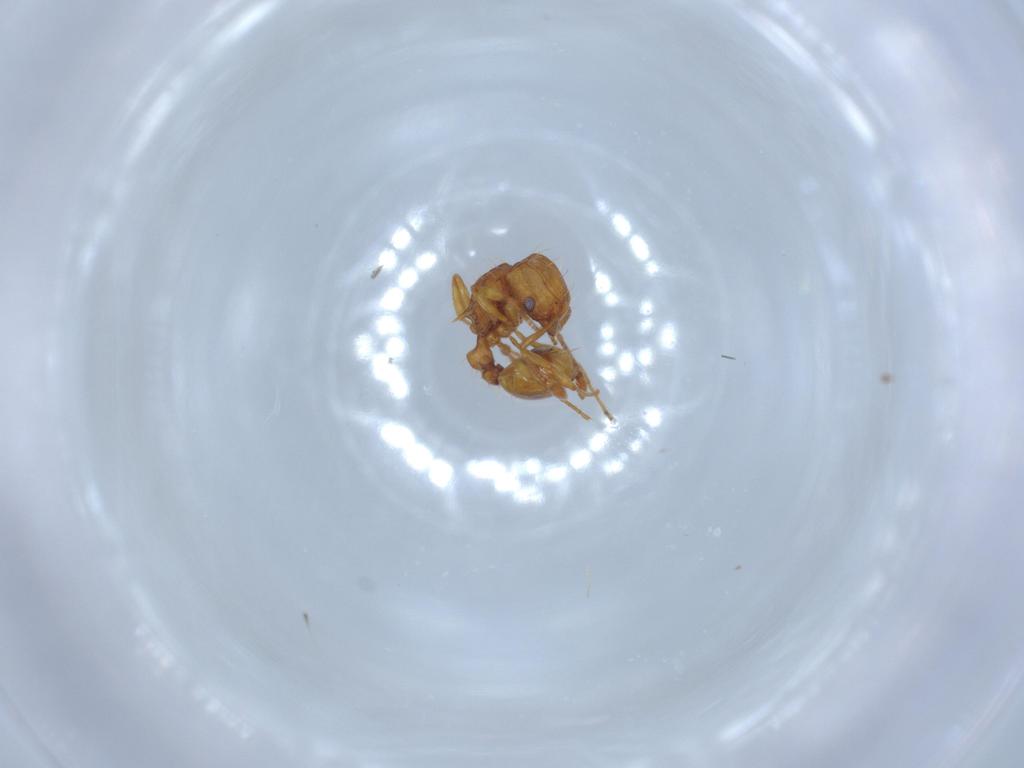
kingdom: Animalia
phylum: Arthropoda
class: Insecta
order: Hymenoptera
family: Formicidae
